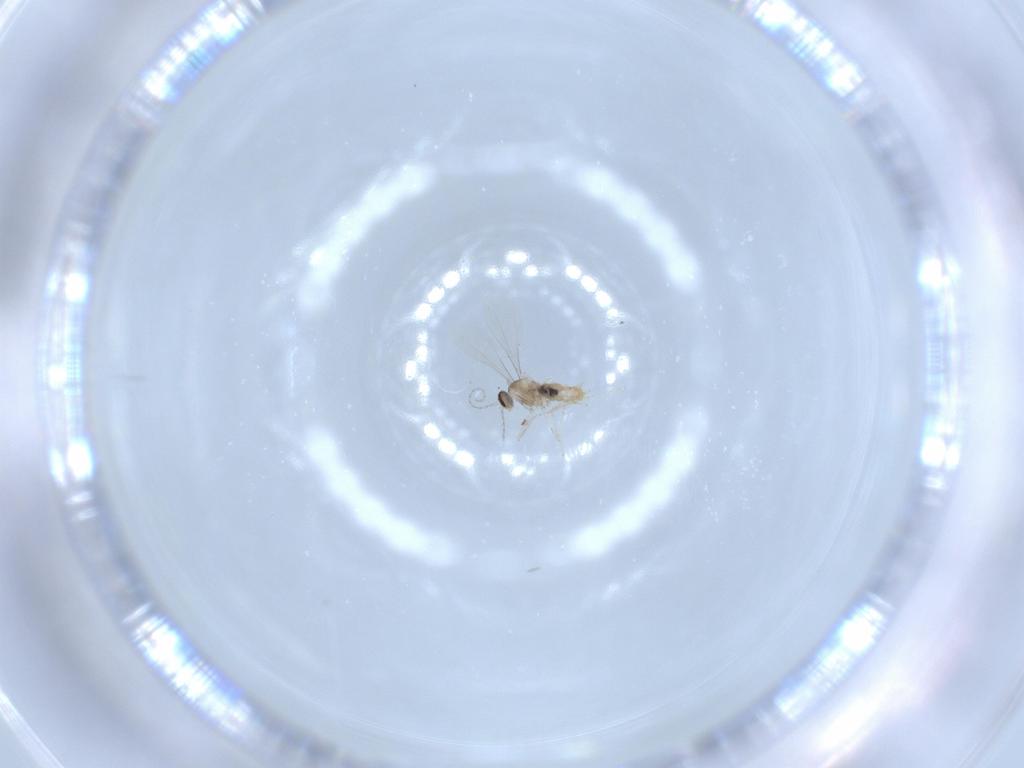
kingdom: Animalia
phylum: Arthropoda
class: Insecta
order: Diptera
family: Cecidomyiidae
